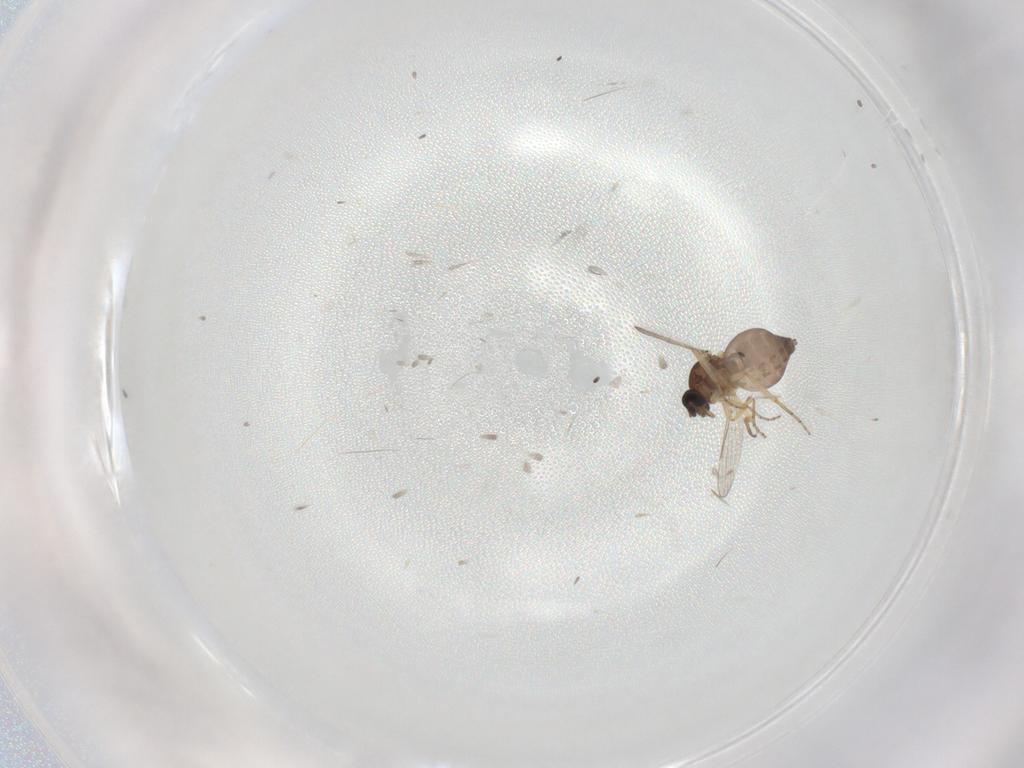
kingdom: Animalia
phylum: Arthropoda
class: Insecta
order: Diptera
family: Ceratopogonidae
